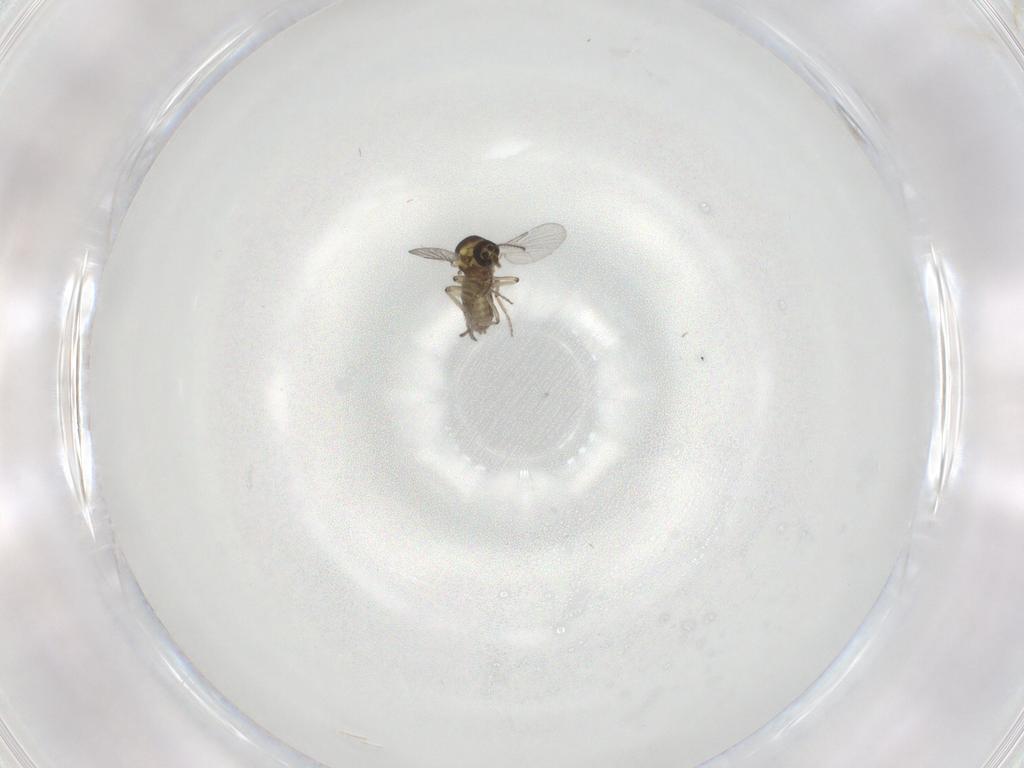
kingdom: Animalia
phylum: Arthropoda
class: Insecta
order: Diptera
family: Ceratopogonidae
